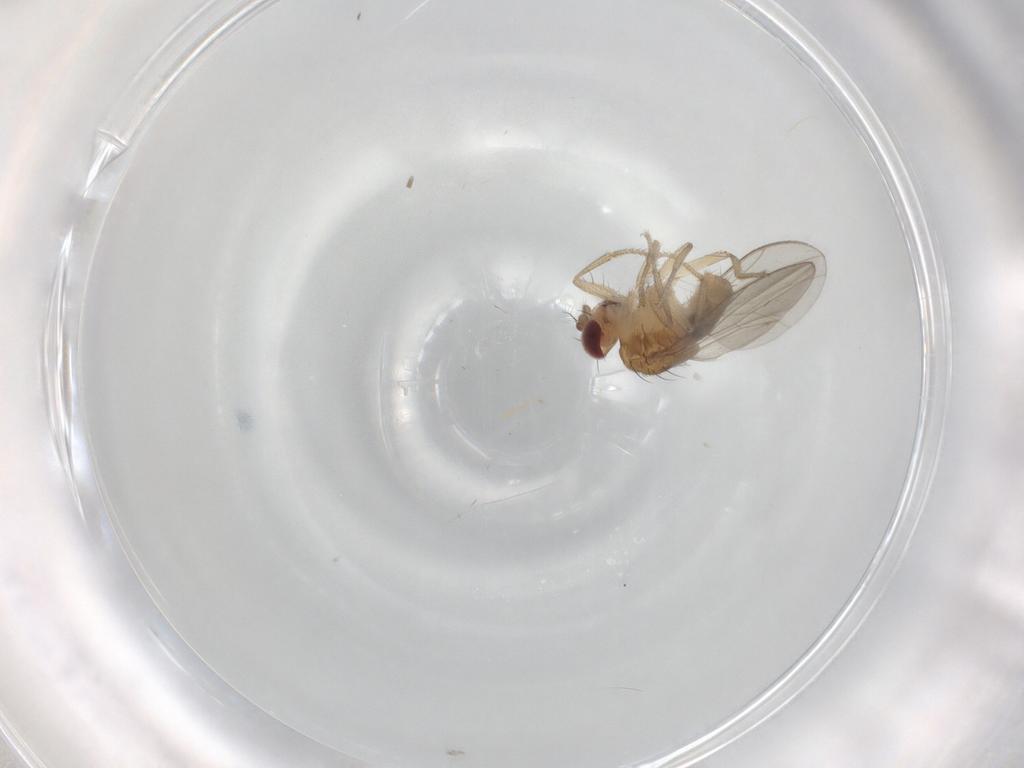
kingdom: Animalia
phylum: Arthropoda
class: Insecta
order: Diptera
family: Drosophilidae
